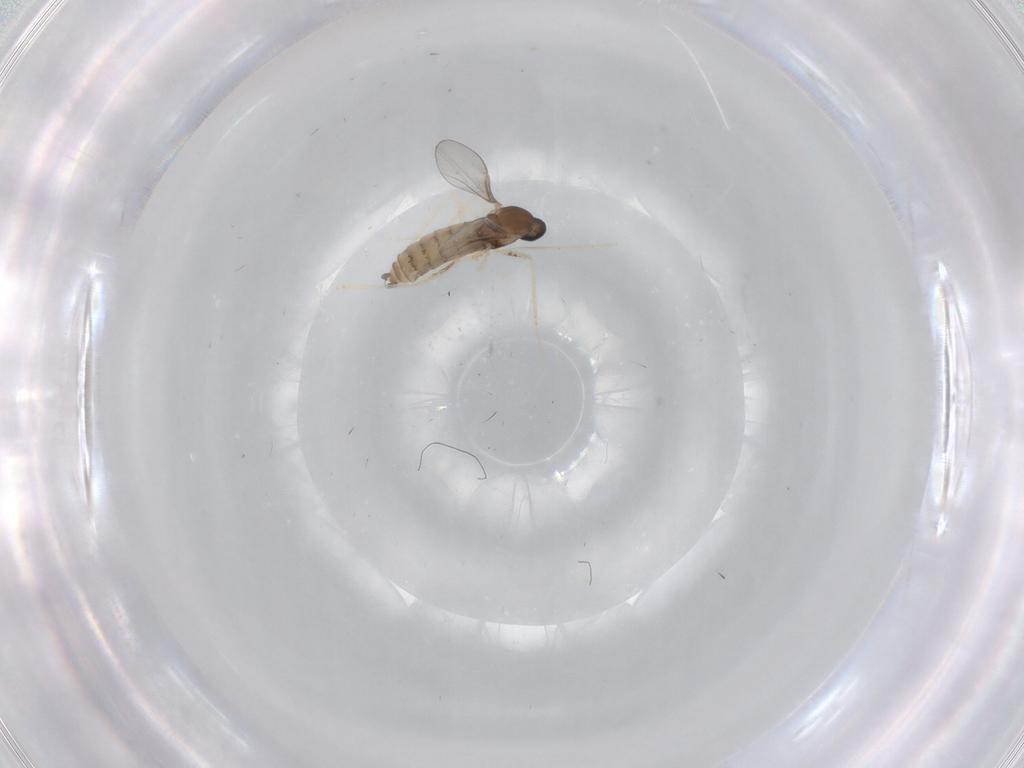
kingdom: Animalia
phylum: Arthropoda
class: Insecta
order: Diptera
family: Cecidomyiidae
